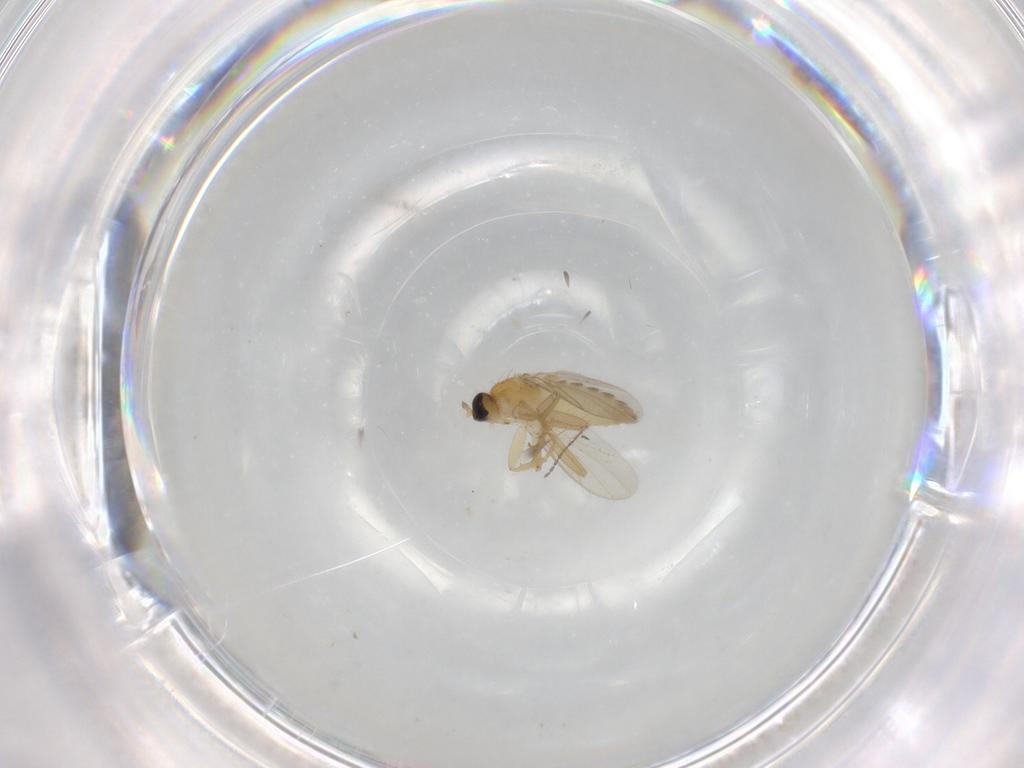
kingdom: Animalia
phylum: Arthropoda
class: Insecta
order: Diptera
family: Hybotidae
